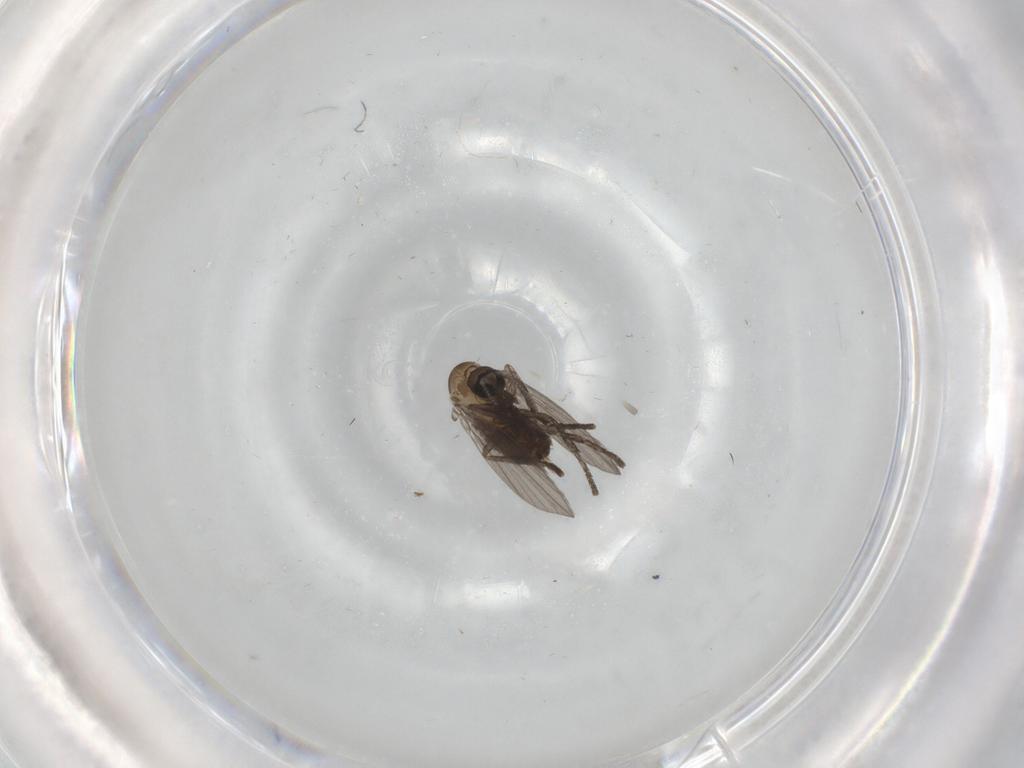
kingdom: Animalia
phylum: Arthropoda
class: Insecta
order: Diptera
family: Psychodidae
